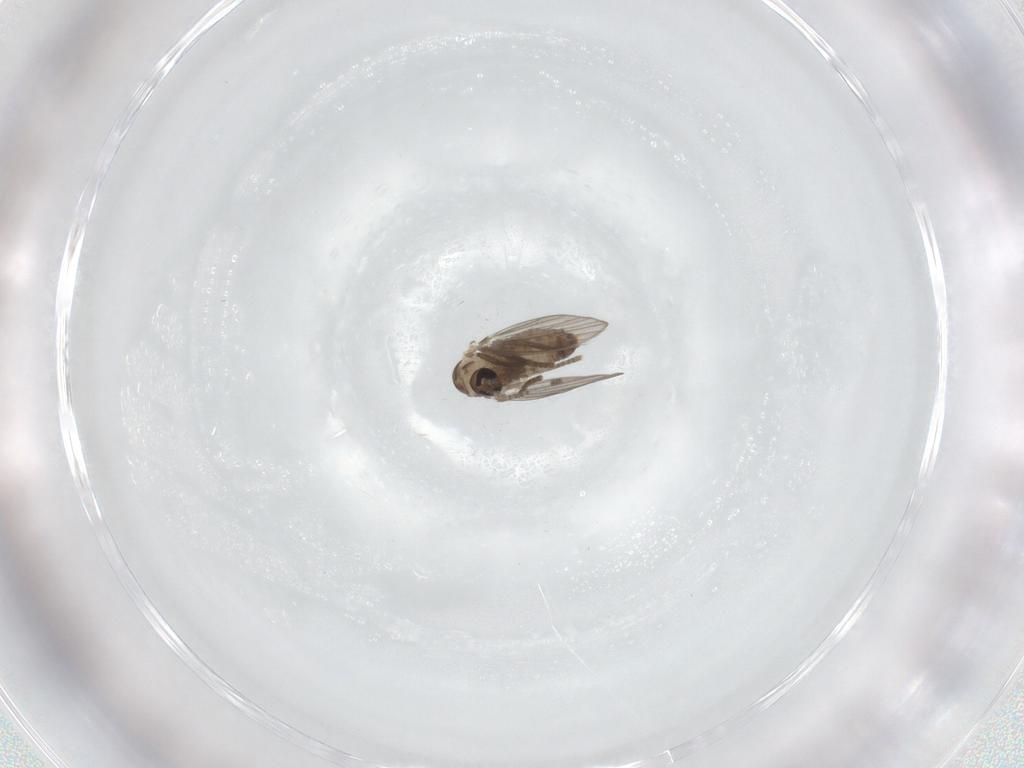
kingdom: Animalia
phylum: Arthropoda
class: Insecta
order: Diptera
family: Psychodidae
